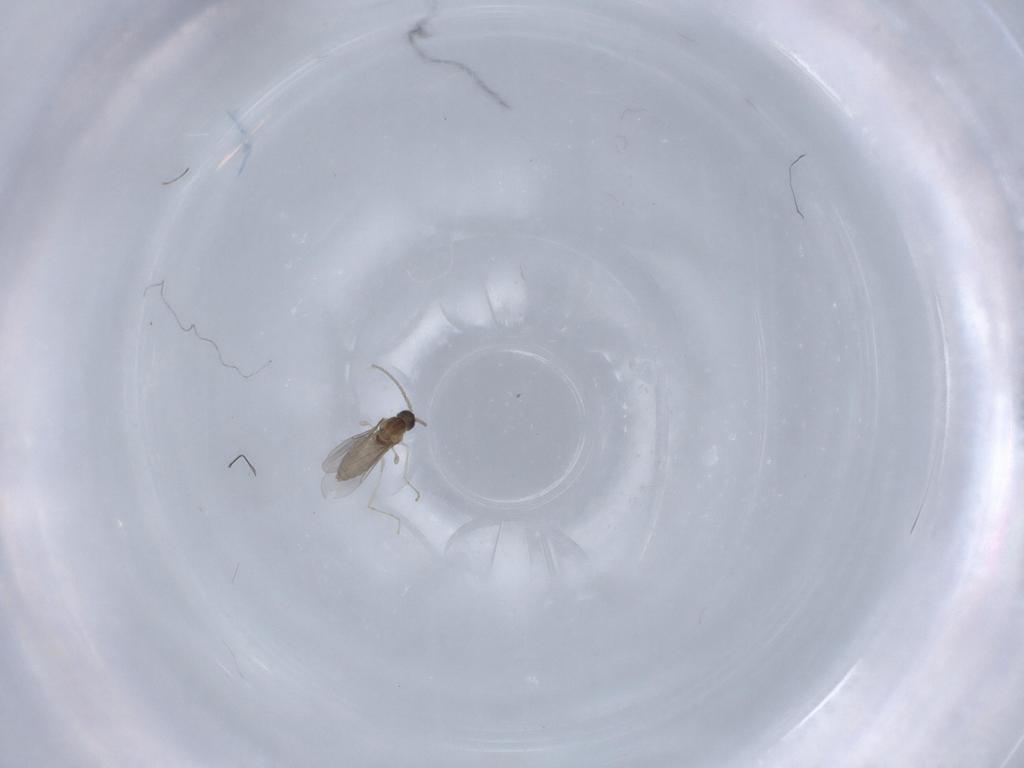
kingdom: Animalia
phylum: Arthropoda
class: Insecta
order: Diptera
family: Cecidomyiidae
